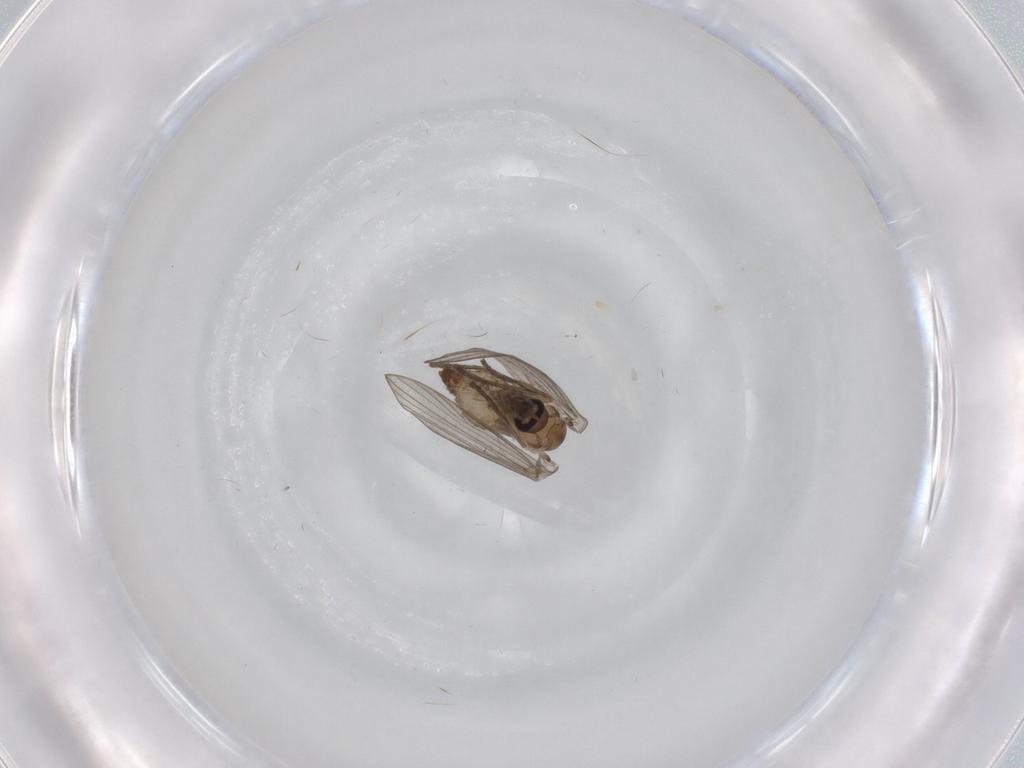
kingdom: Animalia
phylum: Arthropoda
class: Insecta
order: Diptera
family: Psychodidae
